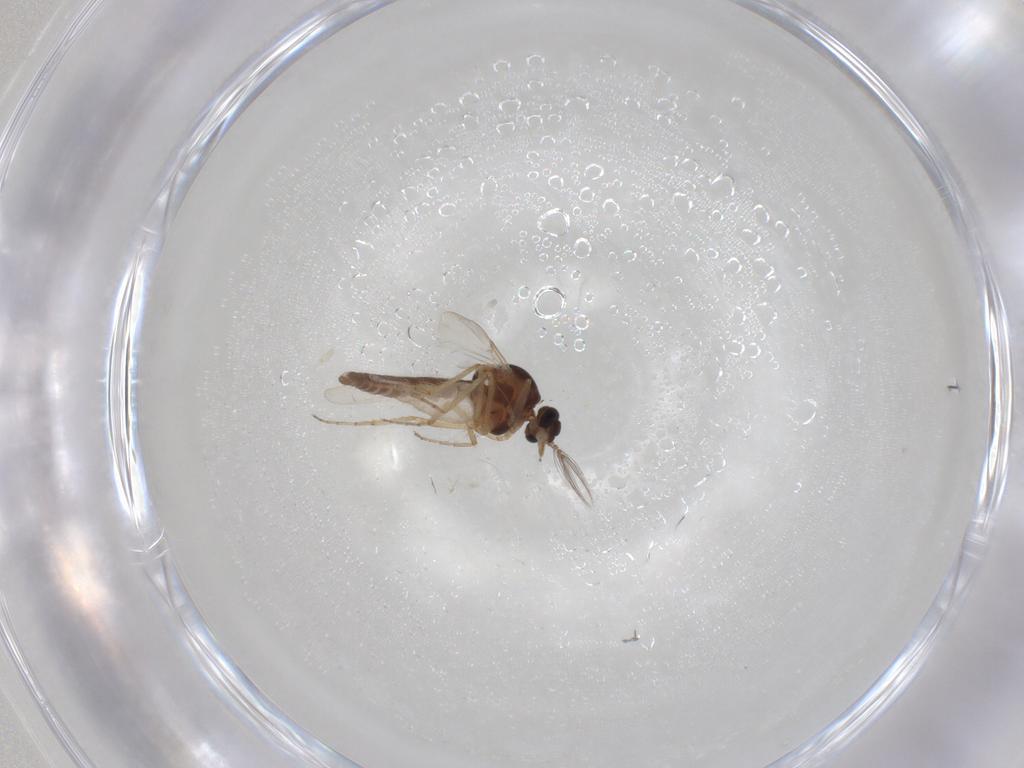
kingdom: Animalia
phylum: Arthropoda
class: Insecta
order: Diptera
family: Ceratopogonidae
